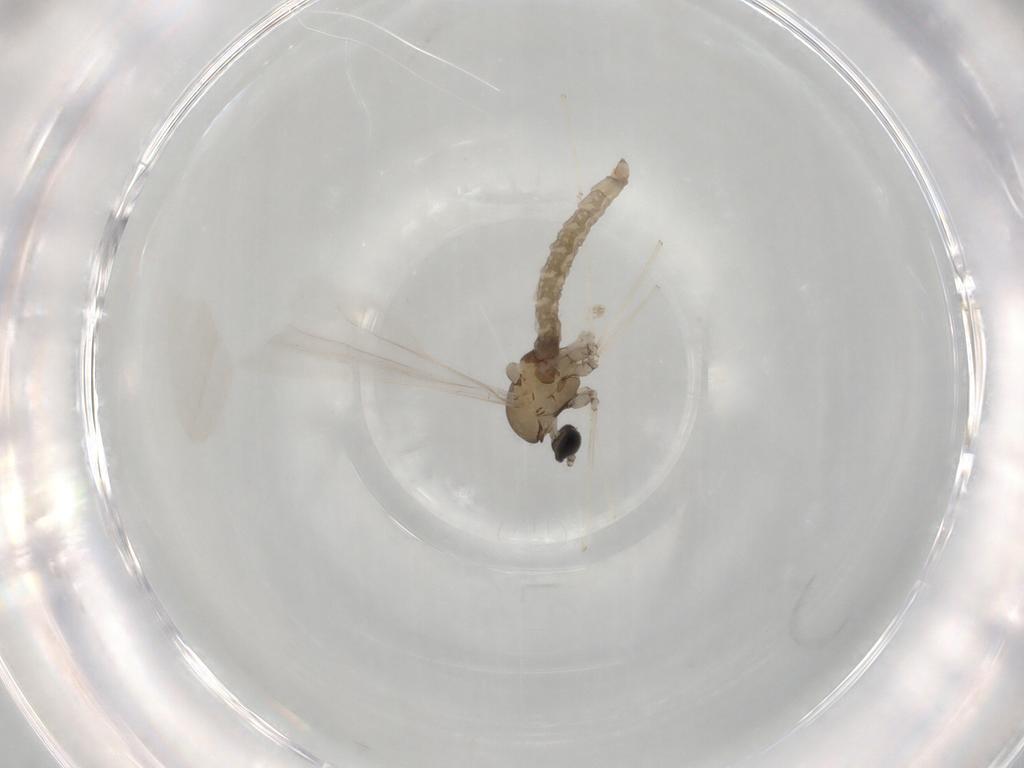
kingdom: Animalia
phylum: Arthropoda
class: Insecta
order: Diptera
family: Cecidomyiidae
